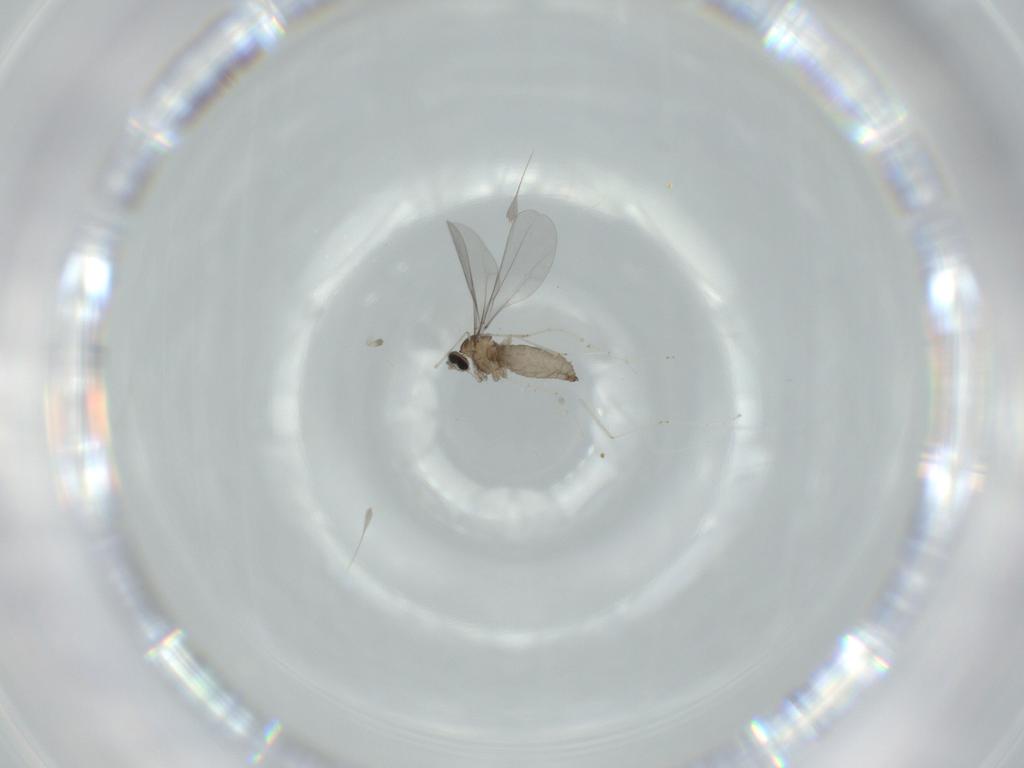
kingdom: Animalia
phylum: Arthropoda
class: Insecta
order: Diptera
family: Cecidomyiidae
